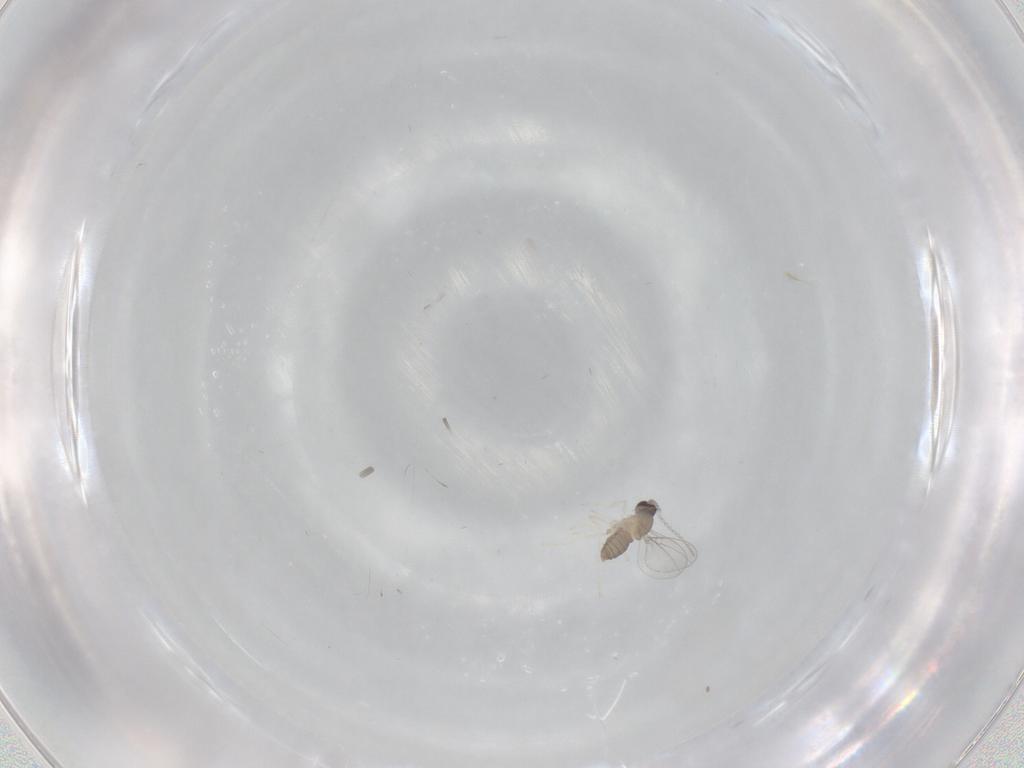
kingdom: Animalia
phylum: Arthropoda
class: Insecta
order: Diptera
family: Cecidomyiidae
